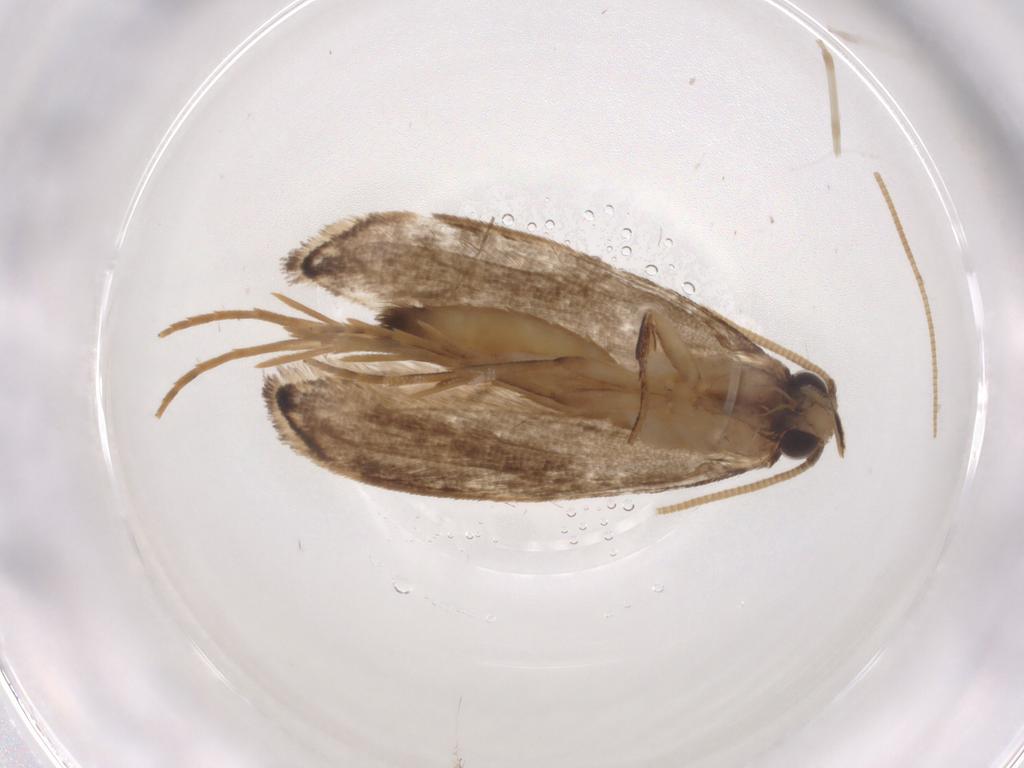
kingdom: Animalia
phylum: Arthropoda
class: Insecta
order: Lepidoptera
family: Tineidae
